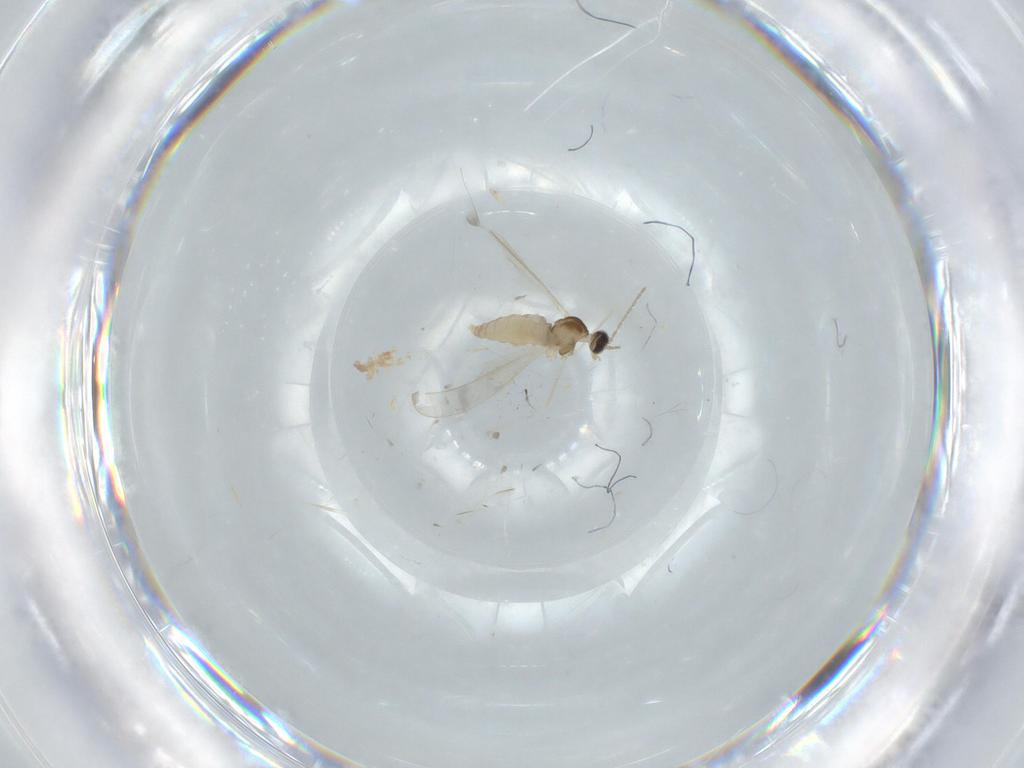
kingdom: Animalia
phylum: Arthropoda
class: Insecta
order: Diptera
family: Cecidomyiidae
